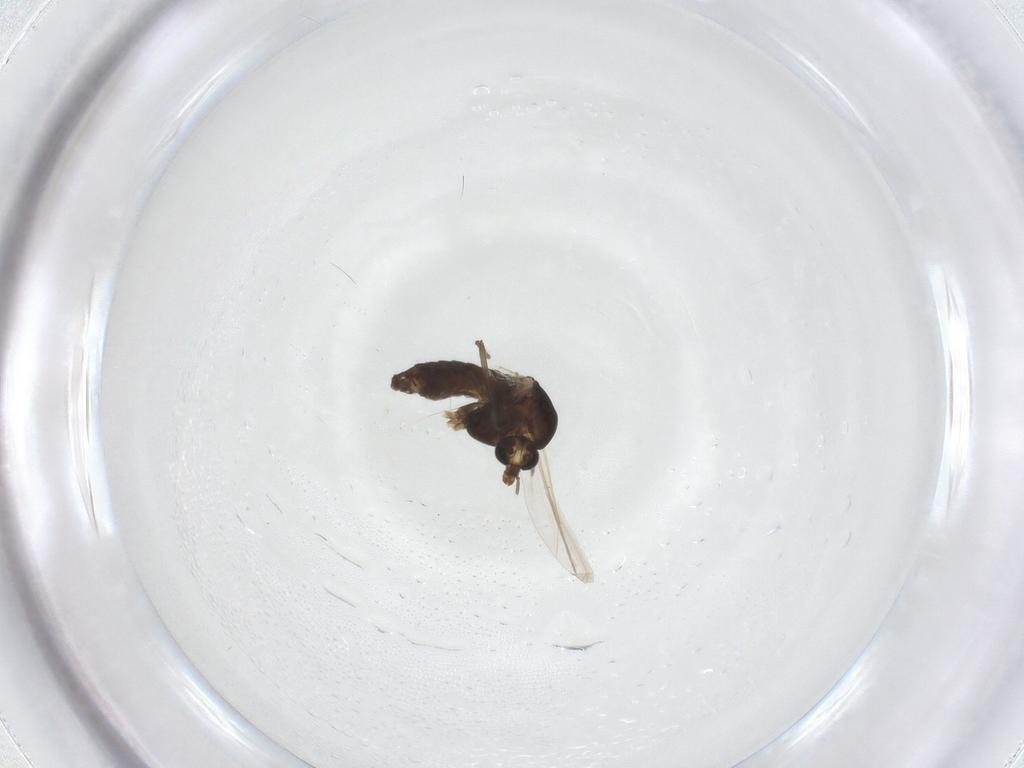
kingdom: Animalia
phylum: Arthropoda
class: Insecta
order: Diptera
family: Chironomidae
